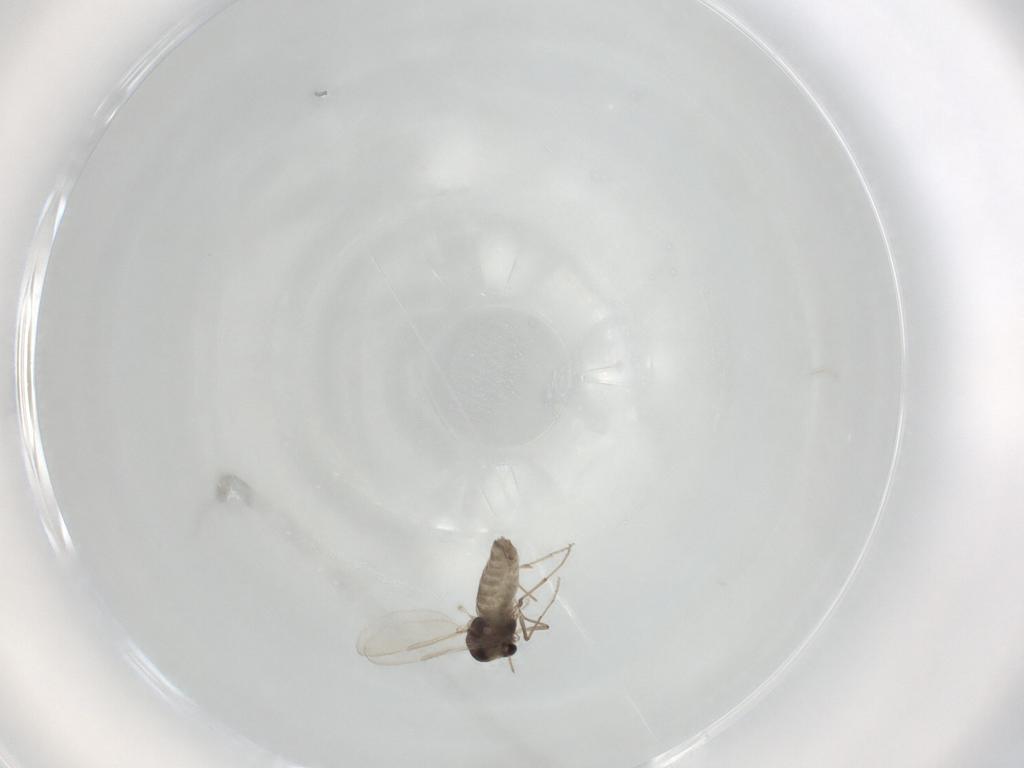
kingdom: Animalia
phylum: Arthropoda
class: Insecta
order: Diptera
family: Chironomidae
